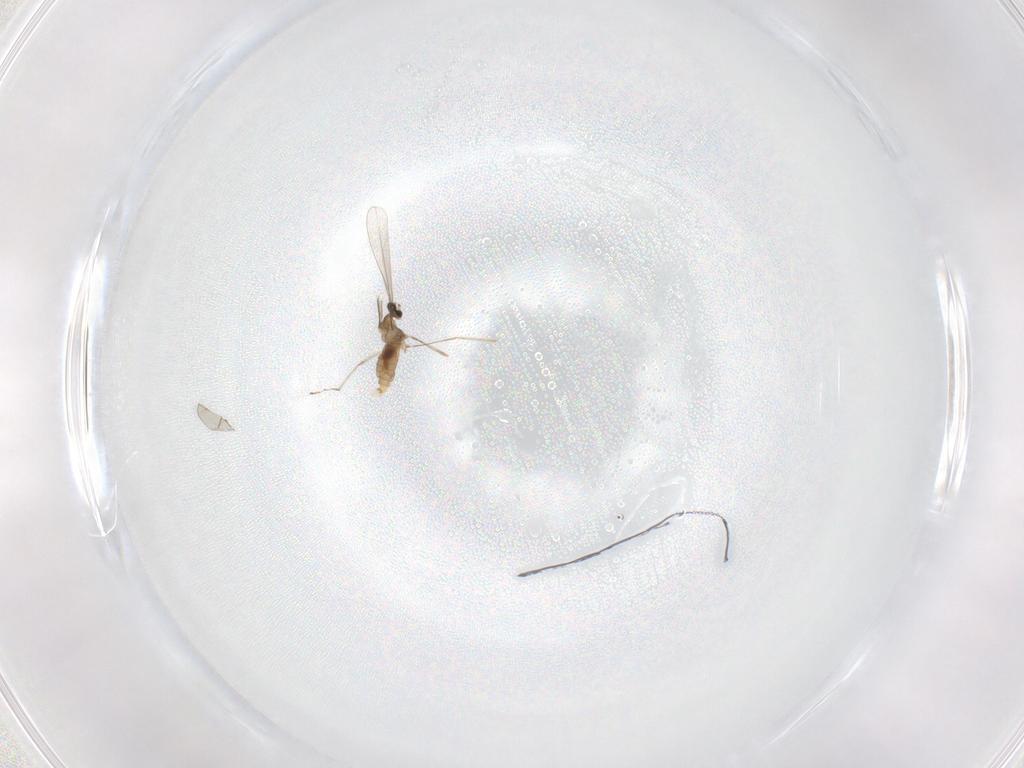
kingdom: Animalia
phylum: Arthropoda
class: Insecta
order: Diptera
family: Cecidomyiidae
